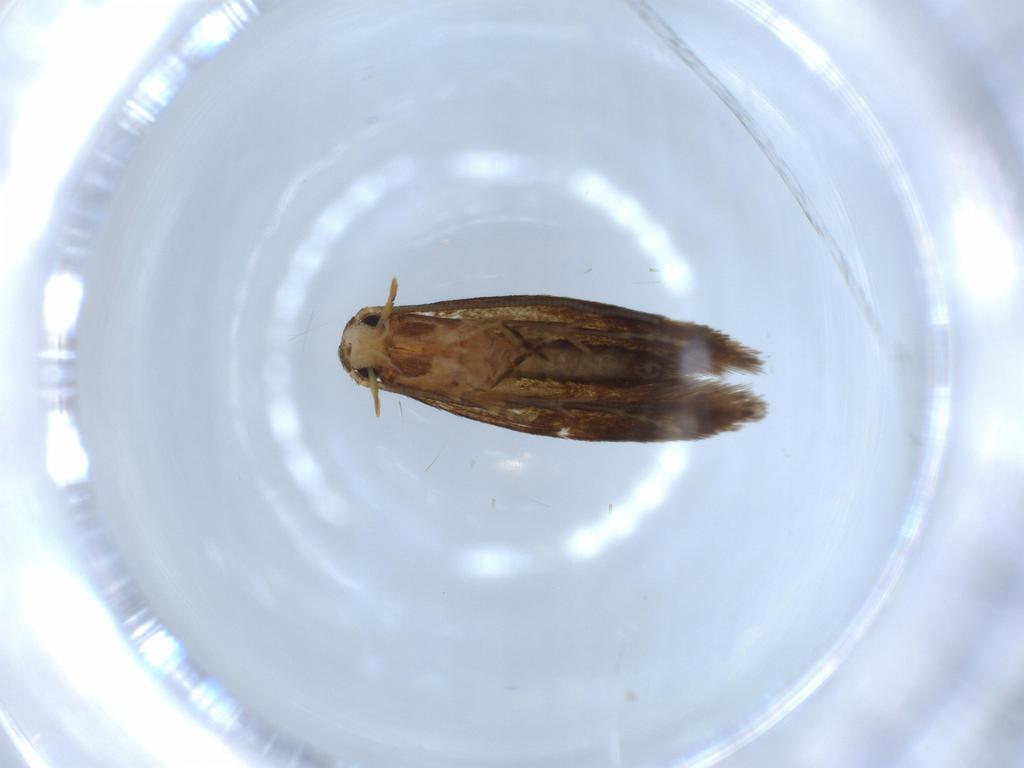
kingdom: Animalia
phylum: Arthropoda
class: Insecta
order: Lepidoptera
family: Tineidae
